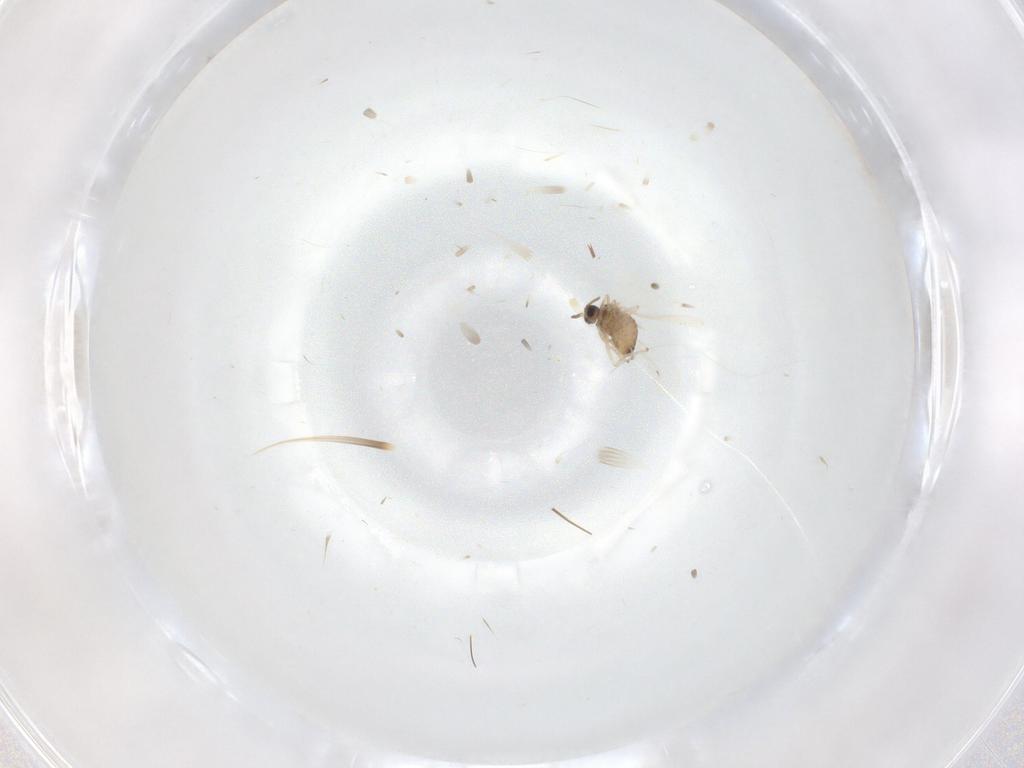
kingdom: Animalia
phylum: Arthropoda
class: Insecta
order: Diptera
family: Cecidomyiidae
